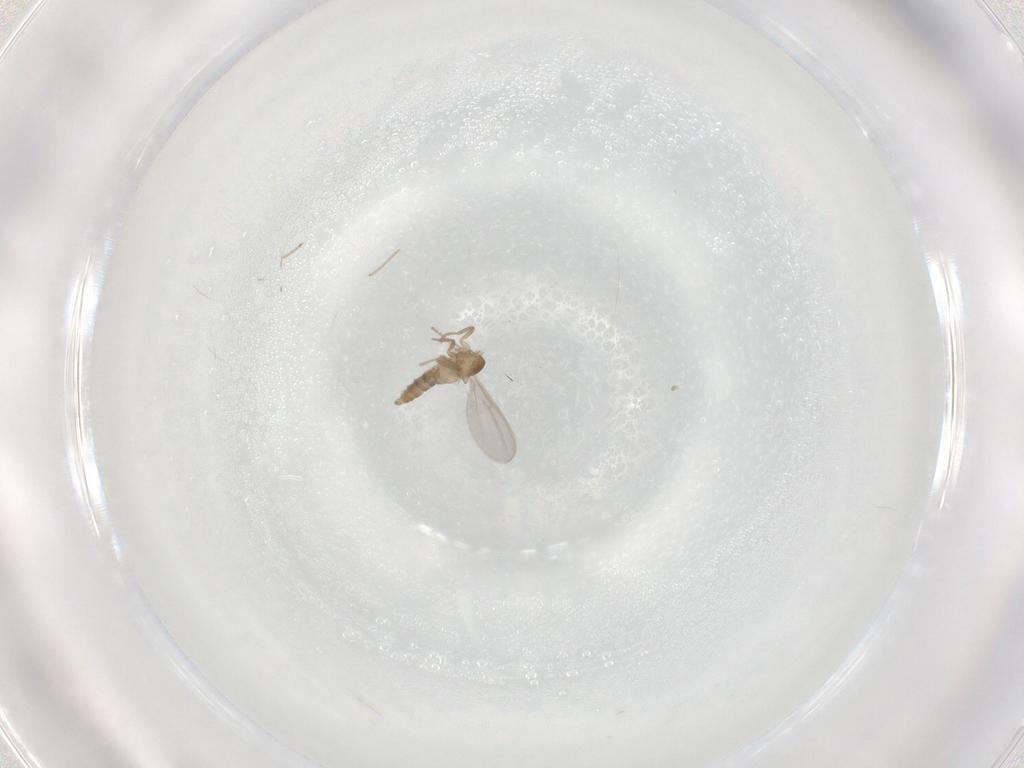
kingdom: Animalia
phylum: Arthropoda
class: Insecta
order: Diptera
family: Cecidomyiidae
